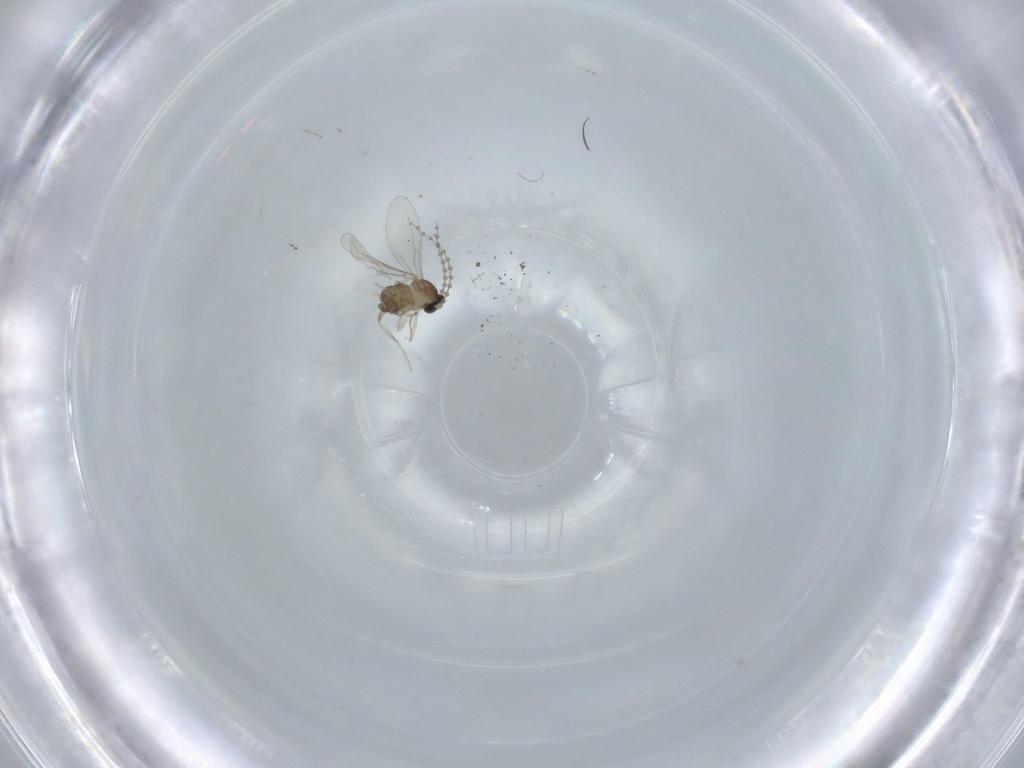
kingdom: Animalia
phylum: Arthropoda
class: Insecta
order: Diptera
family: Cecidomyiidae
